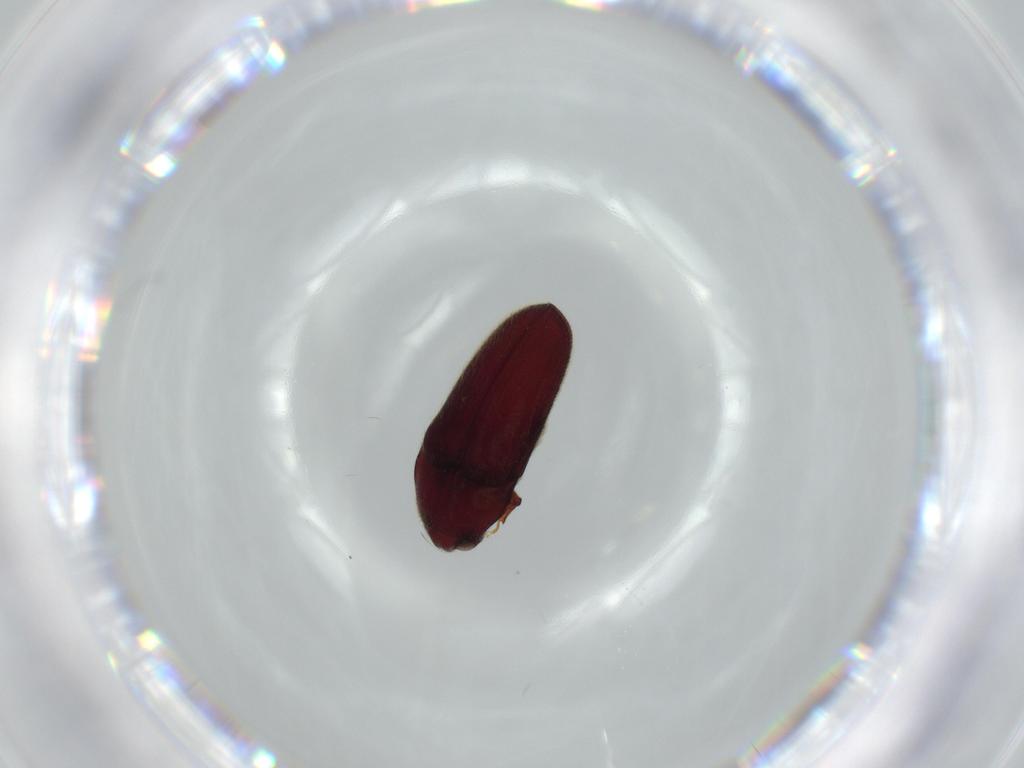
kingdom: Animalia
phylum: Arthropoda
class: Insecta
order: Coleoptera
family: Throscidae
